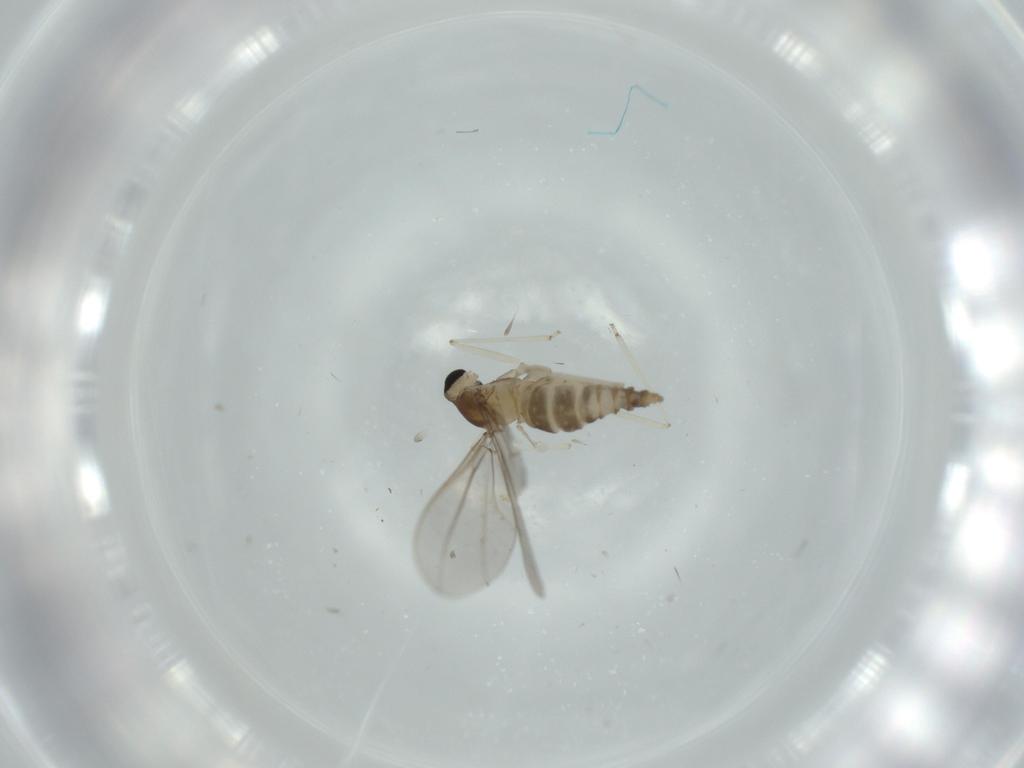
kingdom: Animalia
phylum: Arthropoda
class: Insecta
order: Diptera
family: Cecidomyiidae
